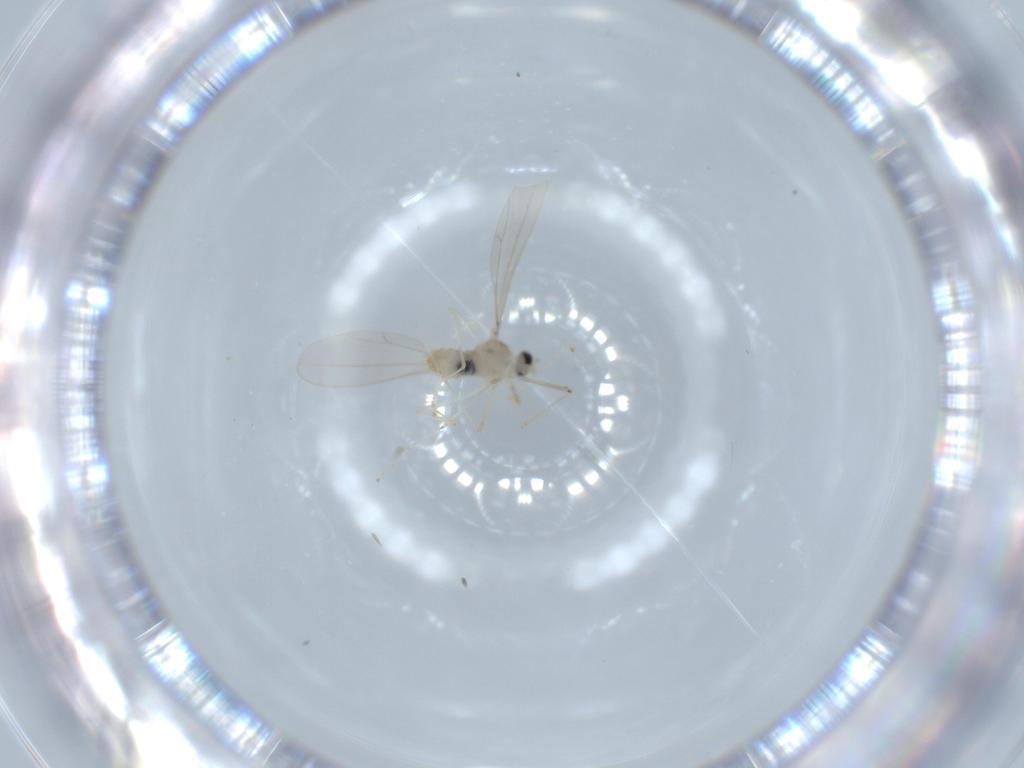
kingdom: Animalia
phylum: Arthropoda
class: Insecta
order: Diptera
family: Cecidomyiidae
